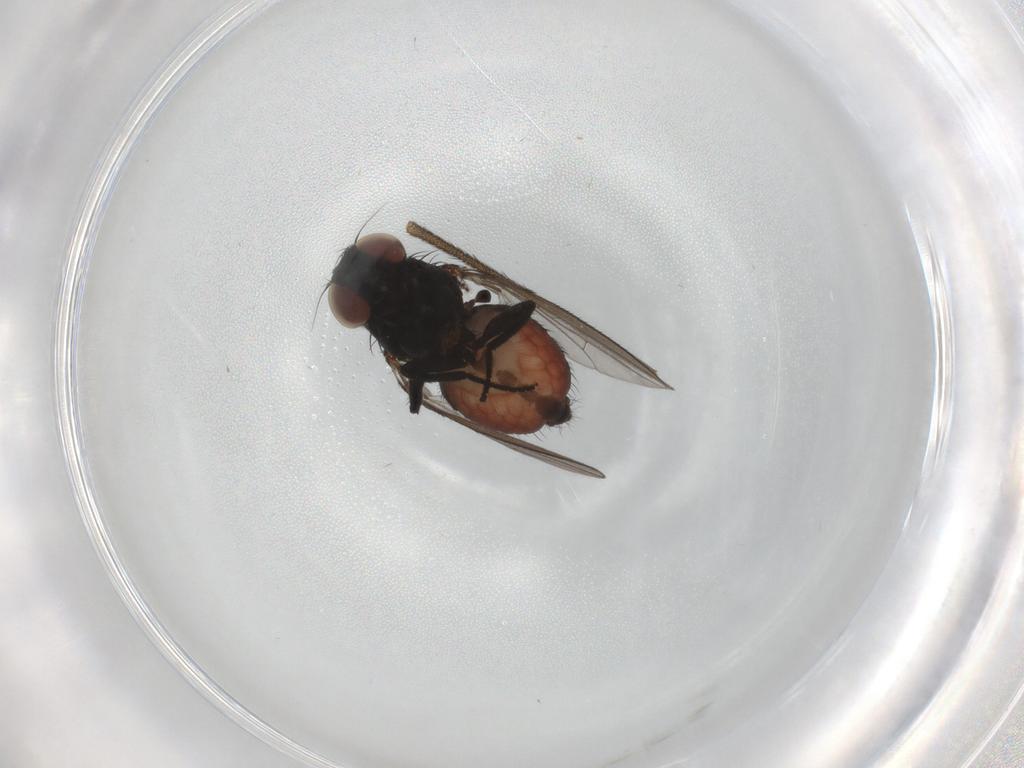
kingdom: Animalia
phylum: Arthropoda
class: Insecta
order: Diptera
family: Milichiidae
